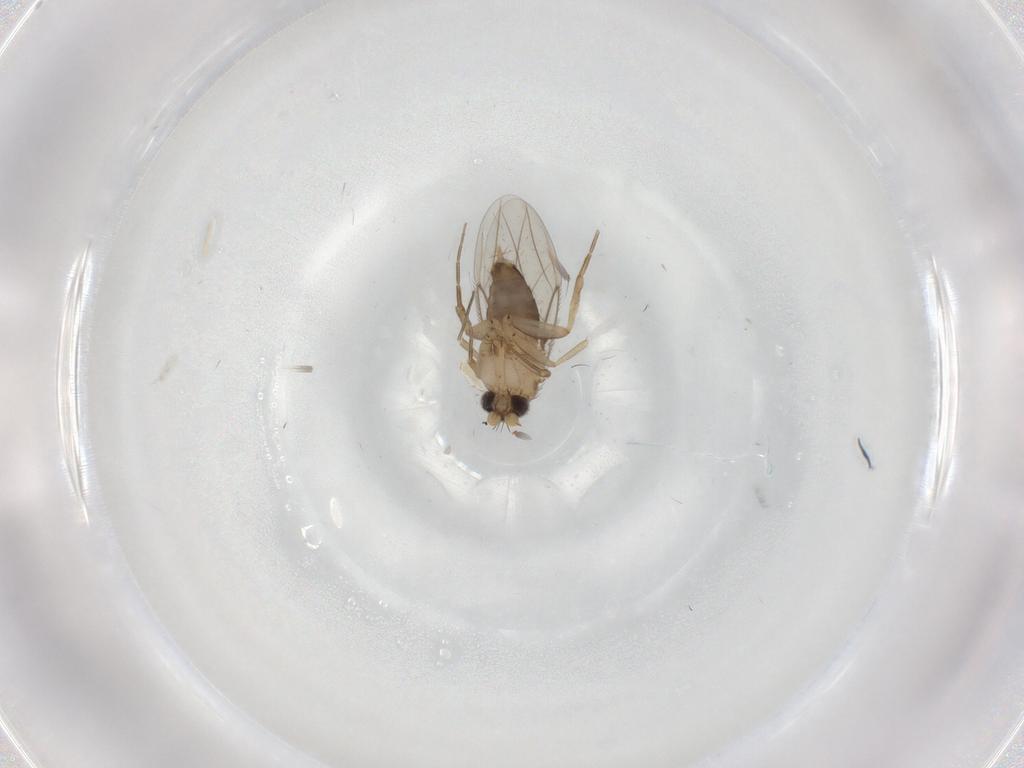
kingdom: Animalia
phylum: Arthropoda
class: Insecta
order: Diptera
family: Phoridae
